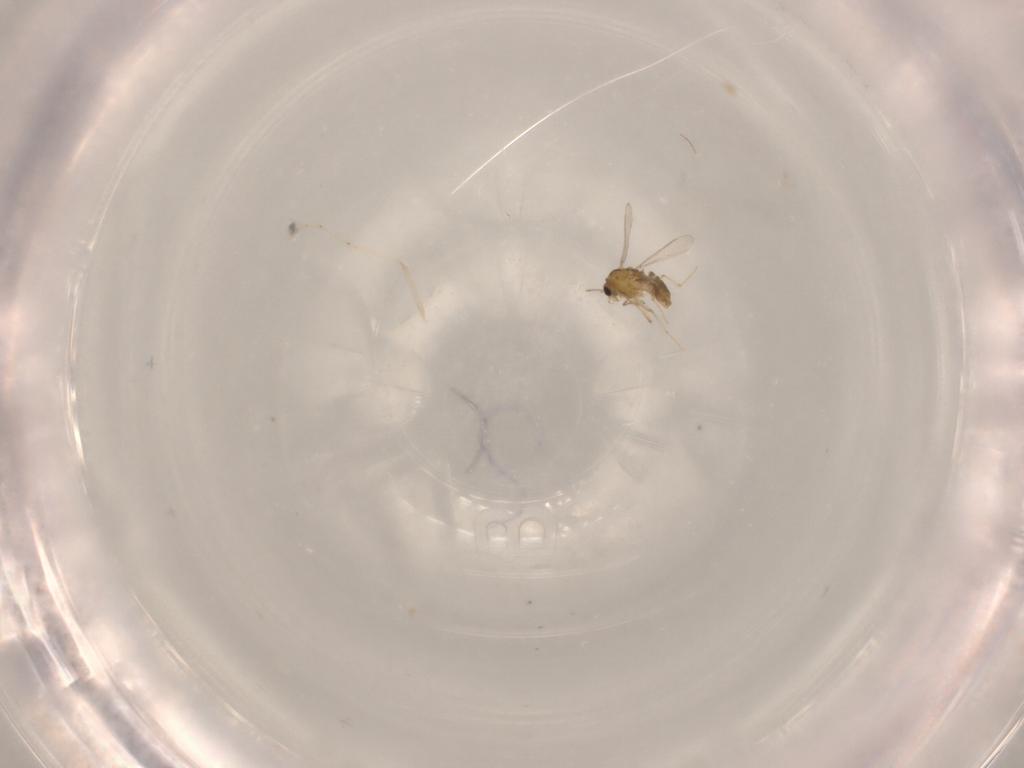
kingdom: Animalia
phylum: Arthropoda
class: Insecta
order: Diptera
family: Chironomidae
